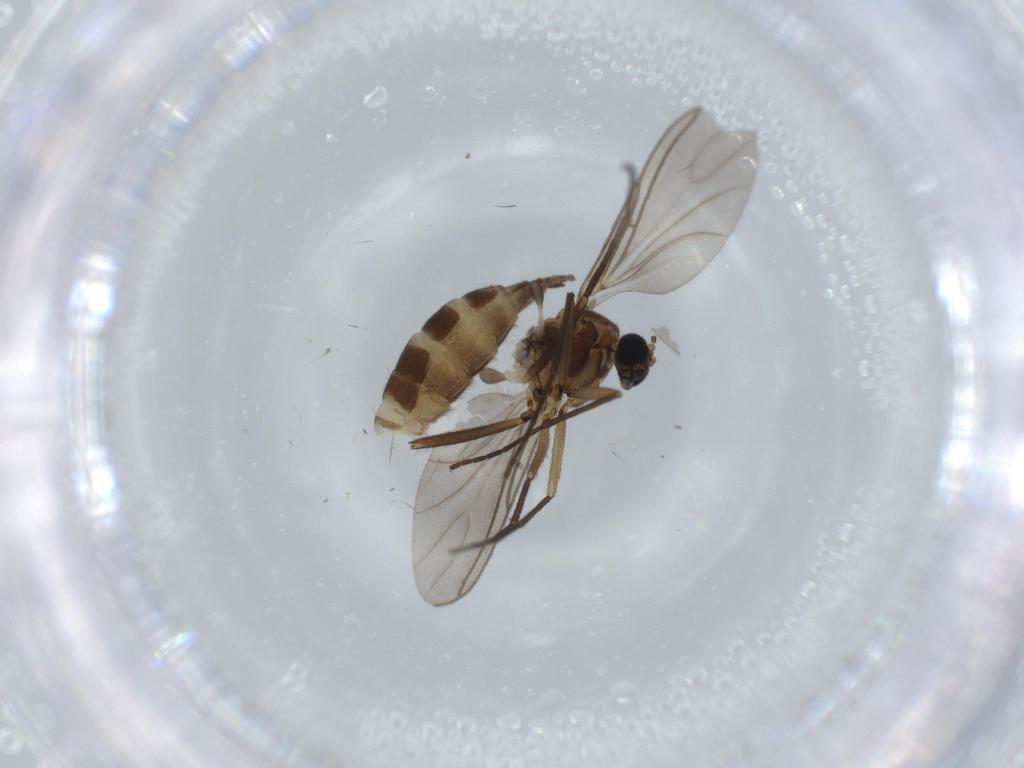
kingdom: Animalia
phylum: Arthropoda
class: Insecta
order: Diptera
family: Sciaridae
